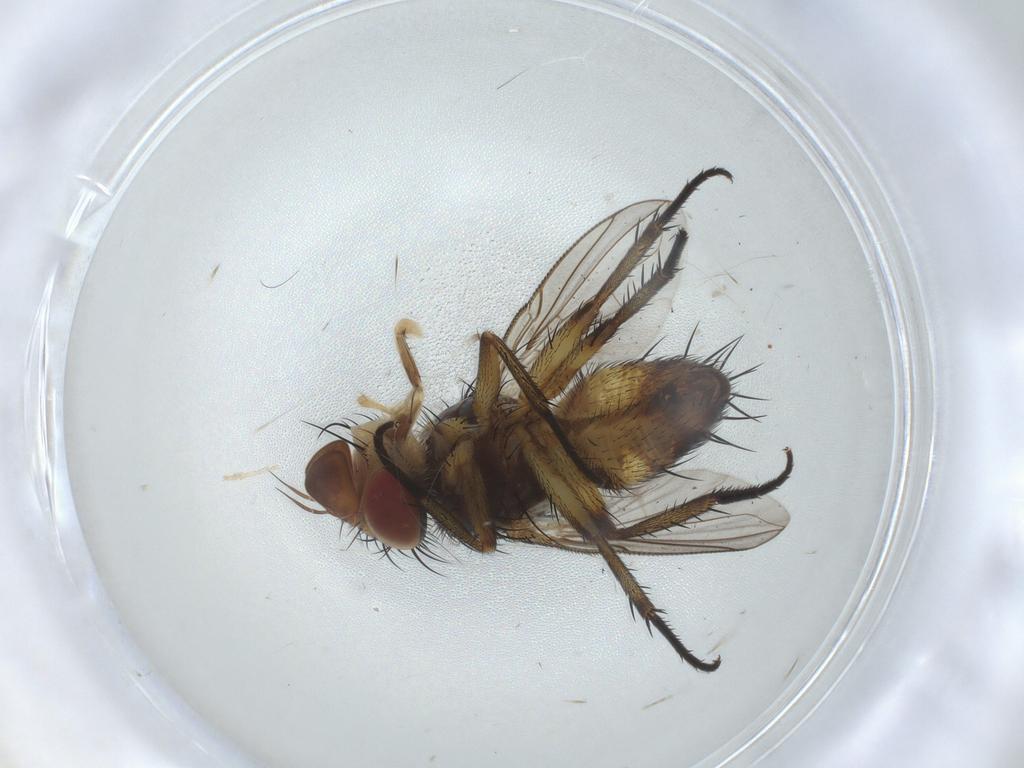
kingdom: Animalia
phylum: Arthropoda
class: Insecta
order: Diptera
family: Tachinidae
